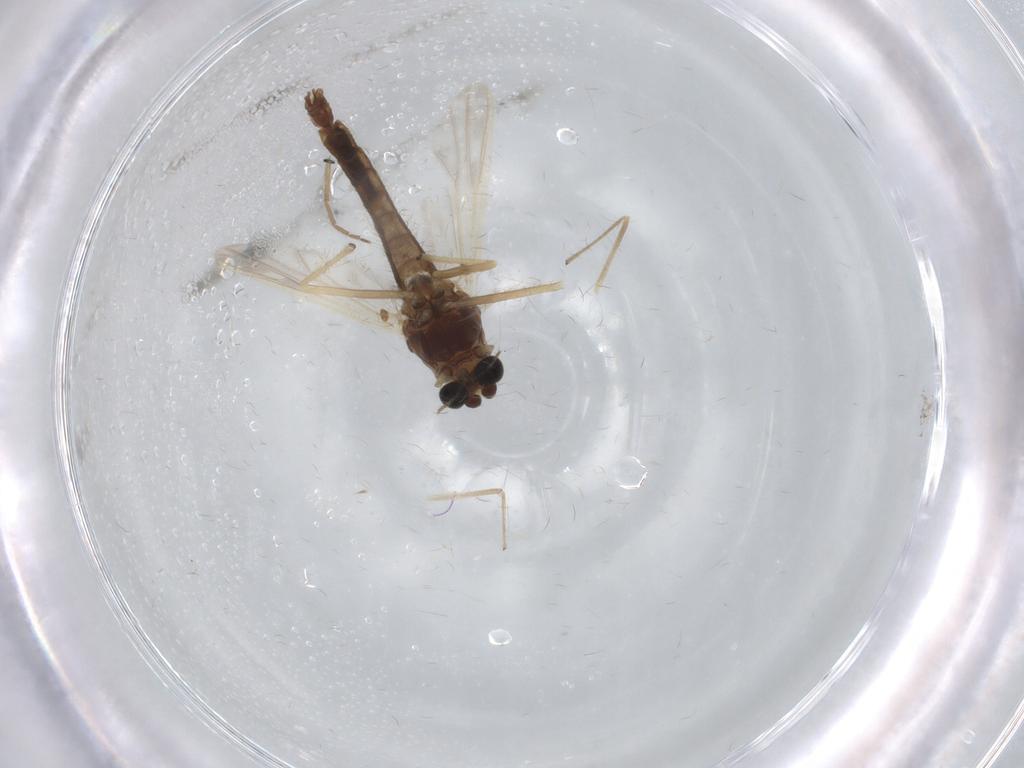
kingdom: Animalia
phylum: Arthropoda
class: Insecta
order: Diptera
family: Chironomidae
